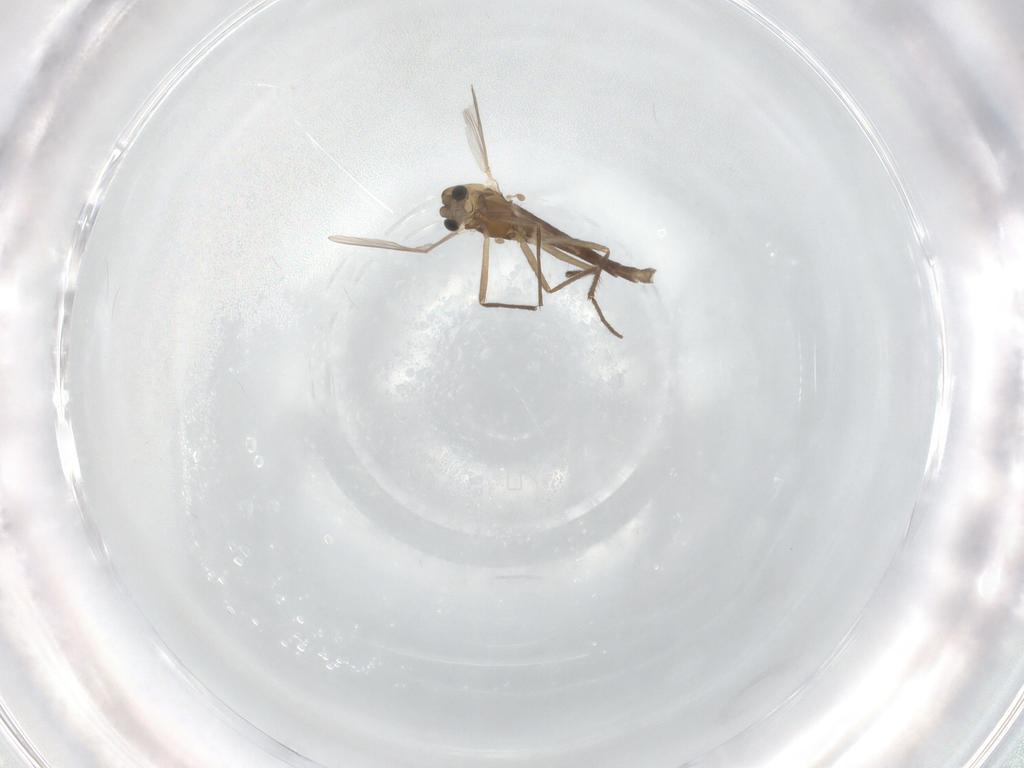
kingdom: Animalia
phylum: Arthropoda
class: Insecta
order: Diptera
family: Chironomidae
